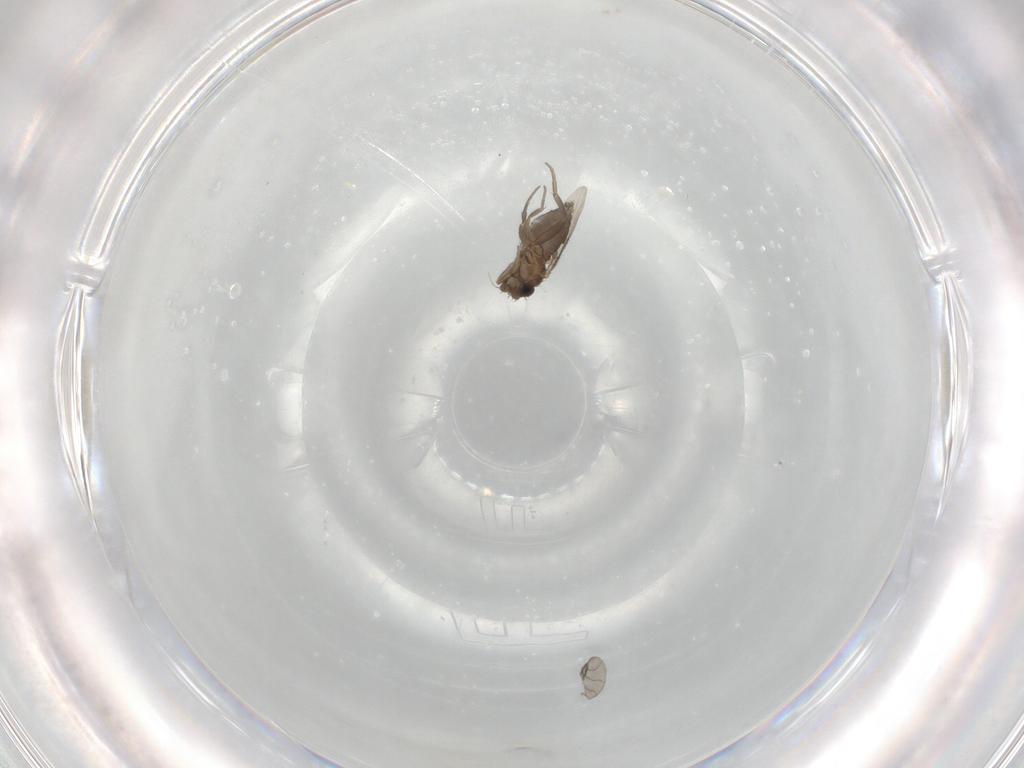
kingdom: Animalia
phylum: Arthropoda
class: Insecta
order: Diptera
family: Phoridae
